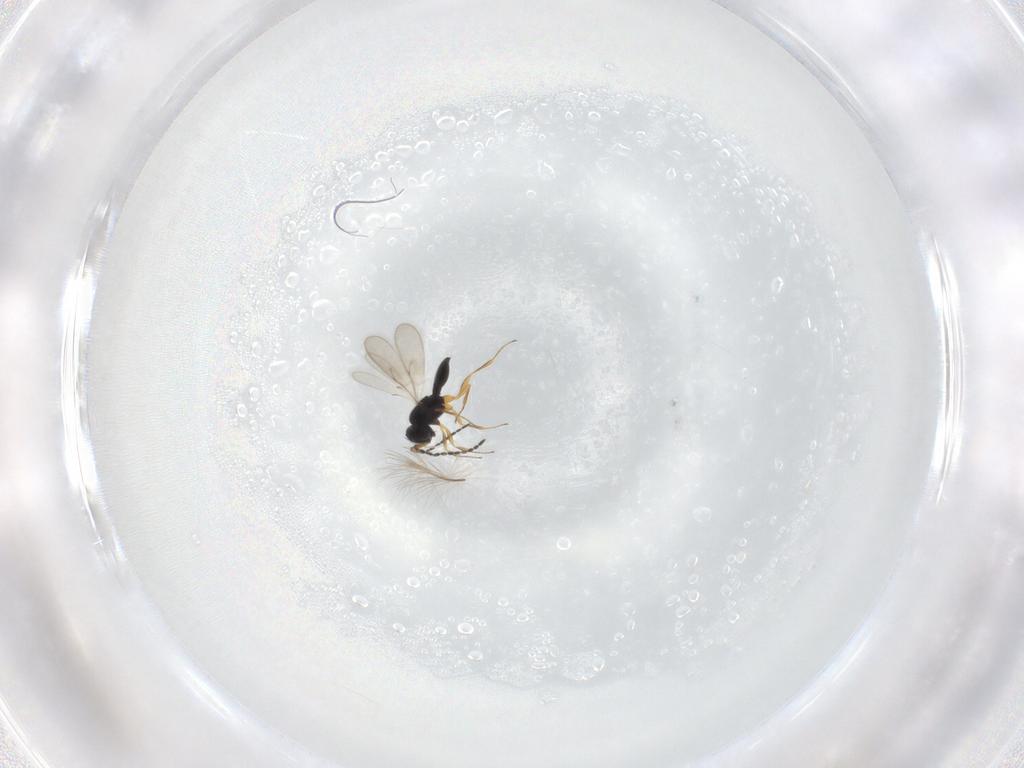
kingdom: Animalia
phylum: Arthropoda
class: Insecta
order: Hymenoptera
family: Scelionidae
